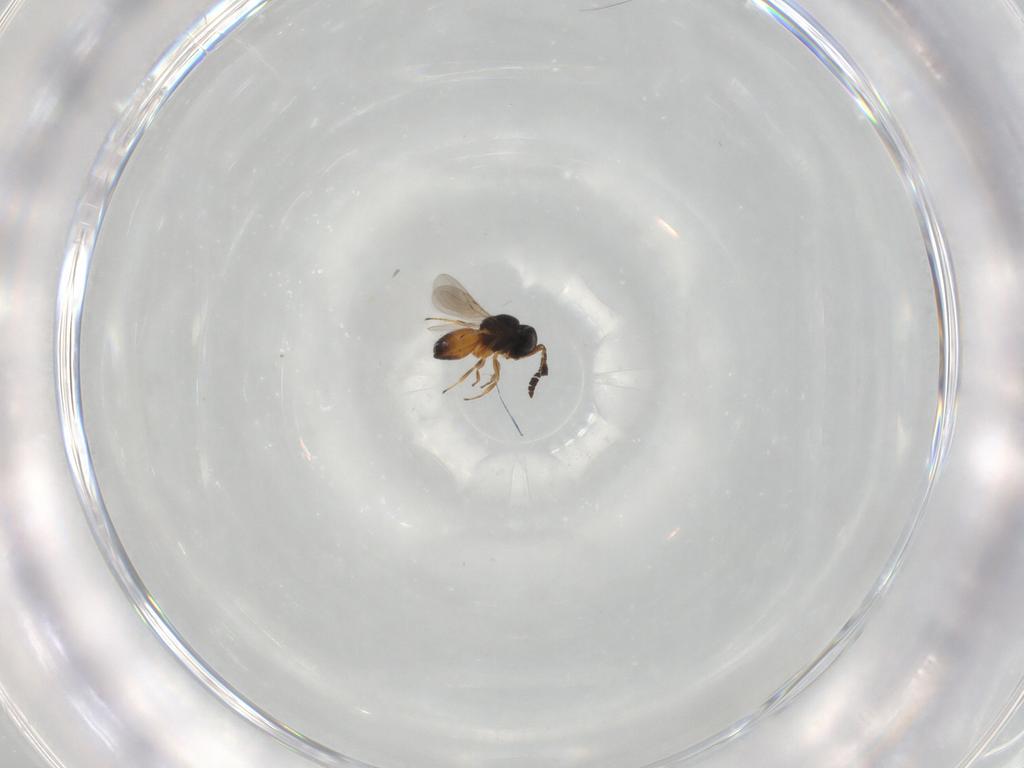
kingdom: Animalia
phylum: Arthropoda
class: Insecta
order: Hymenoptera
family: Scelionidae
